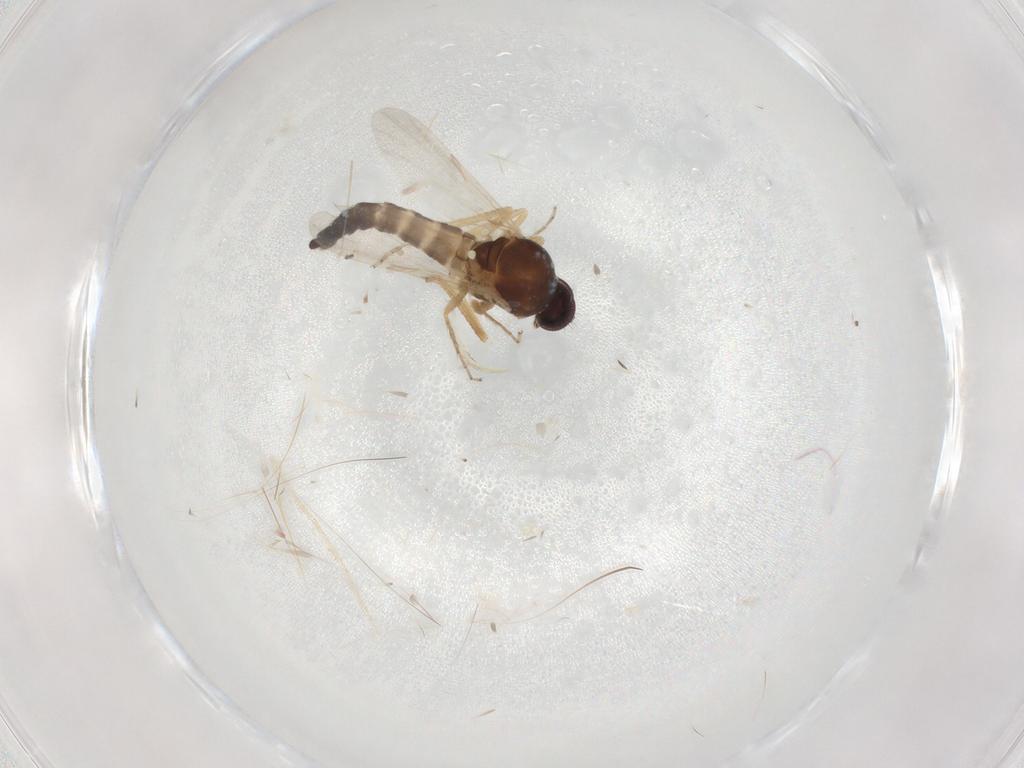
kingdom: Animalia
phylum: Arthropoda
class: Insecta
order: Diptera
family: Ceratopogonidae
